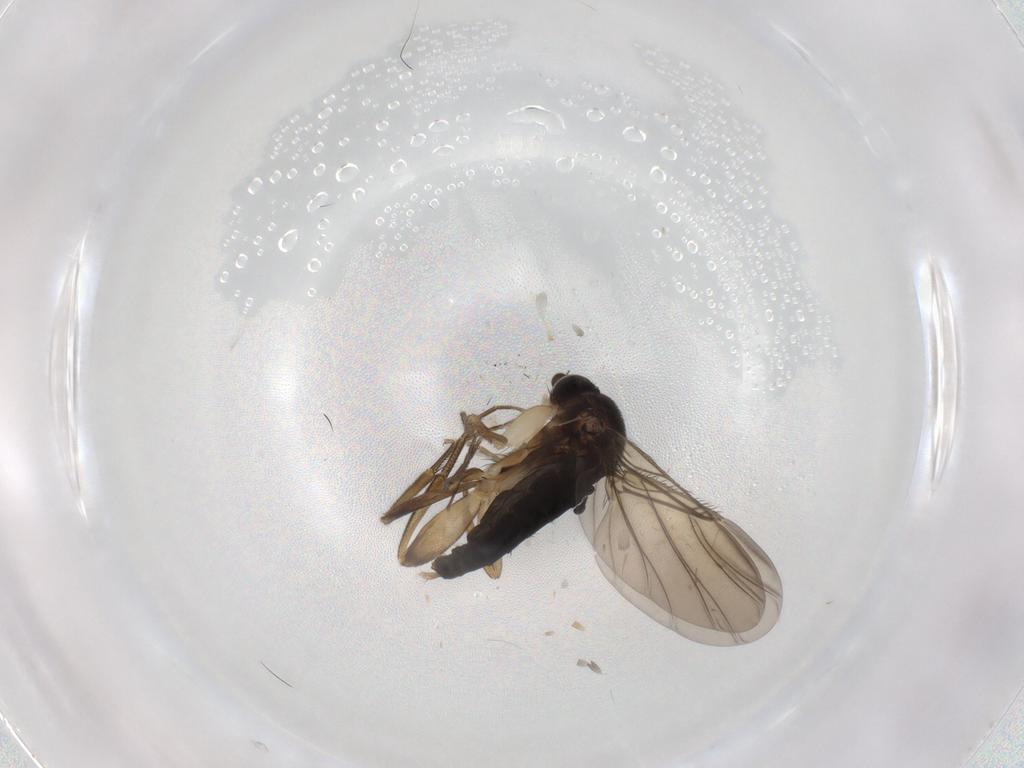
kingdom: Animalia
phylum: Arthropoda
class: Insecta
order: Diptera
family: Phoridae
